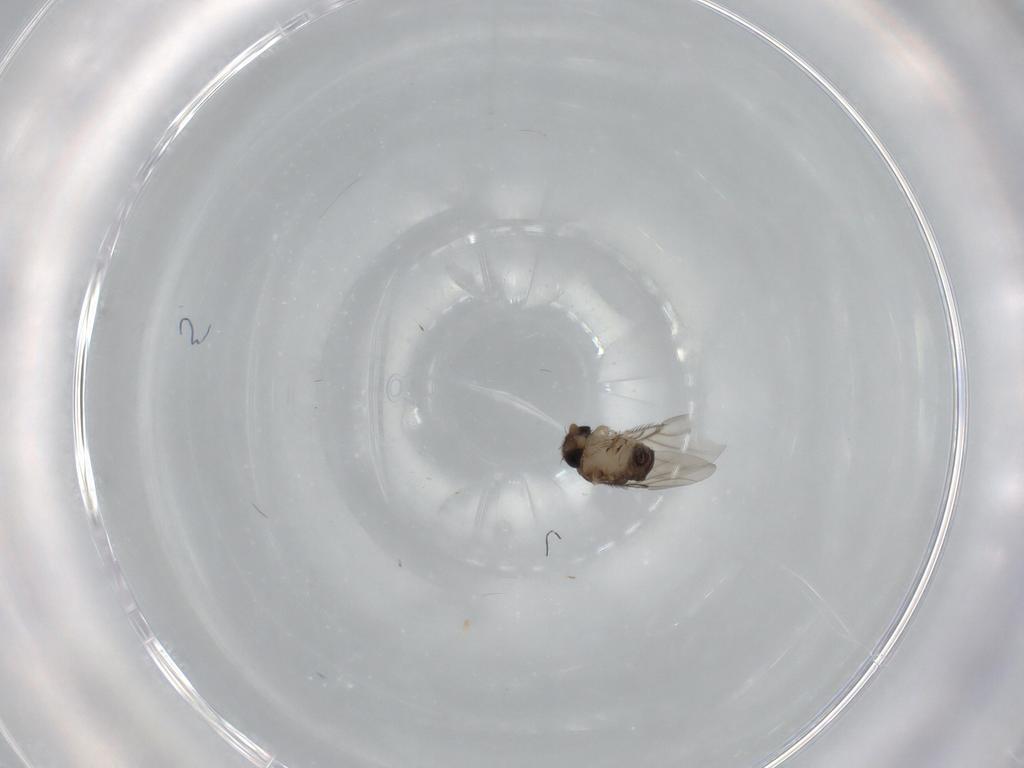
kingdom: Animalia
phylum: Arthropoda
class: Insecta
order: Diptera
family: Phoridae
